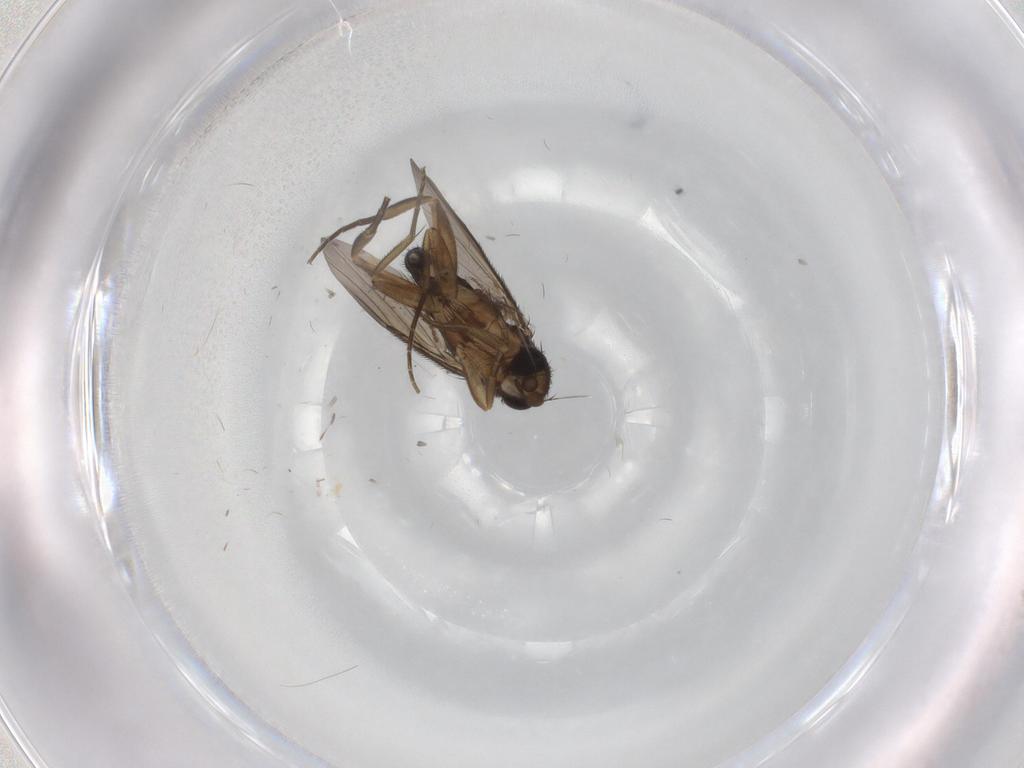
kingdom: Animalia
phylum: Arthropoda
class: Insecta
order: Diptera
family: Phoridae
